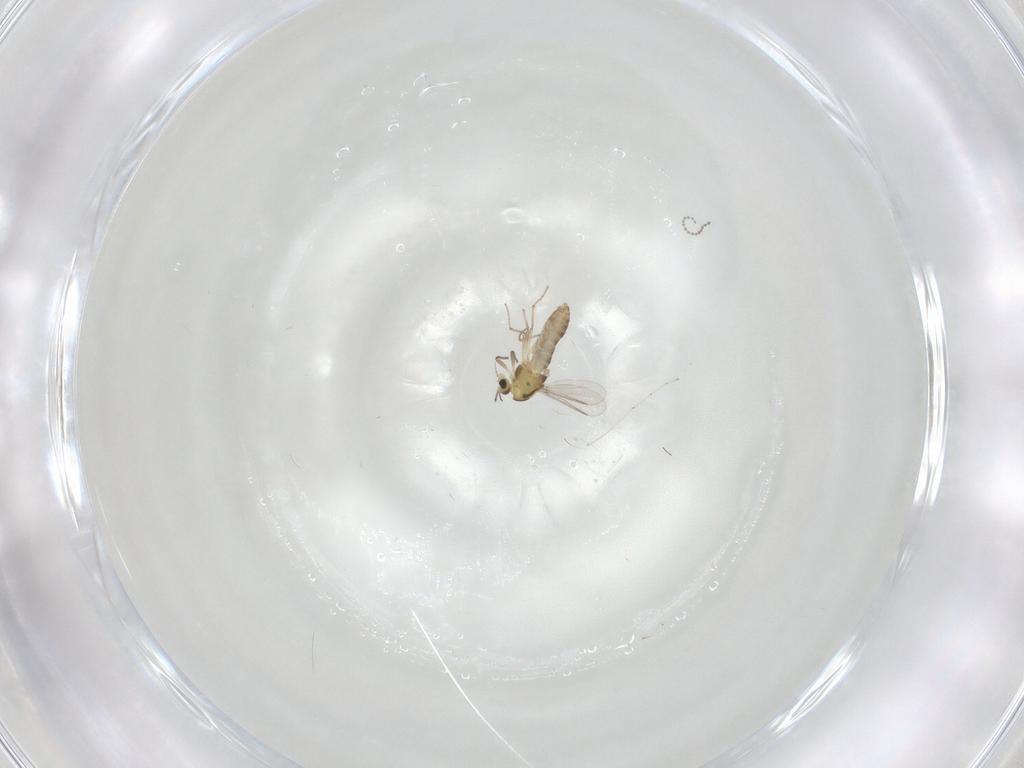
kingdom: Animalia
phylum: Arthropoda
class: Insecta
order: Diptera
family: Chironomidae
